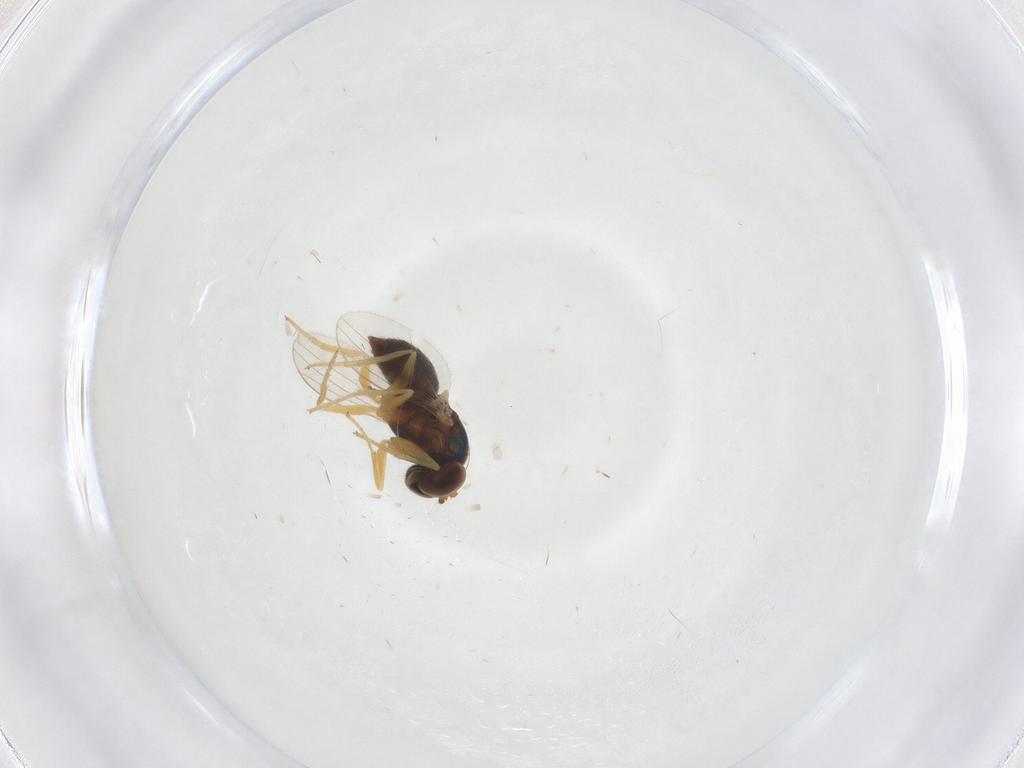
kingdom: Animalia
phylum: Arthropoda
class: Insecta
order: Diptera
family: Dolichopodidae
